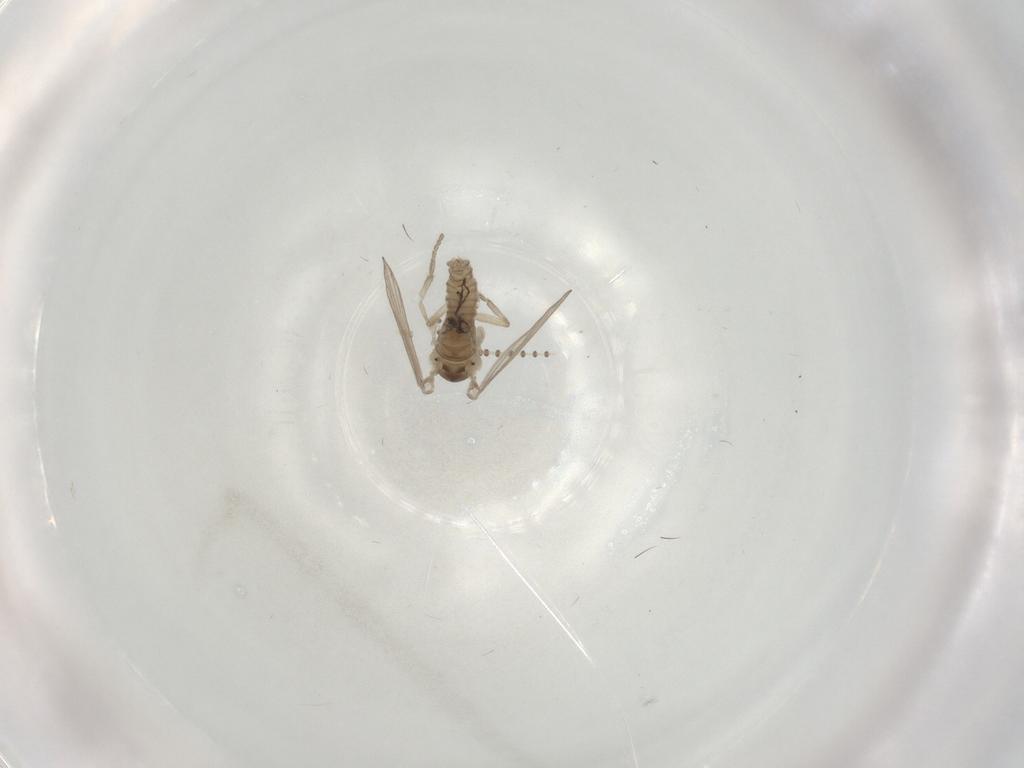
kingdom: Animalia
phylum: Arthropoda
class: Insecta
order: Diptera
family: Psychodidae
